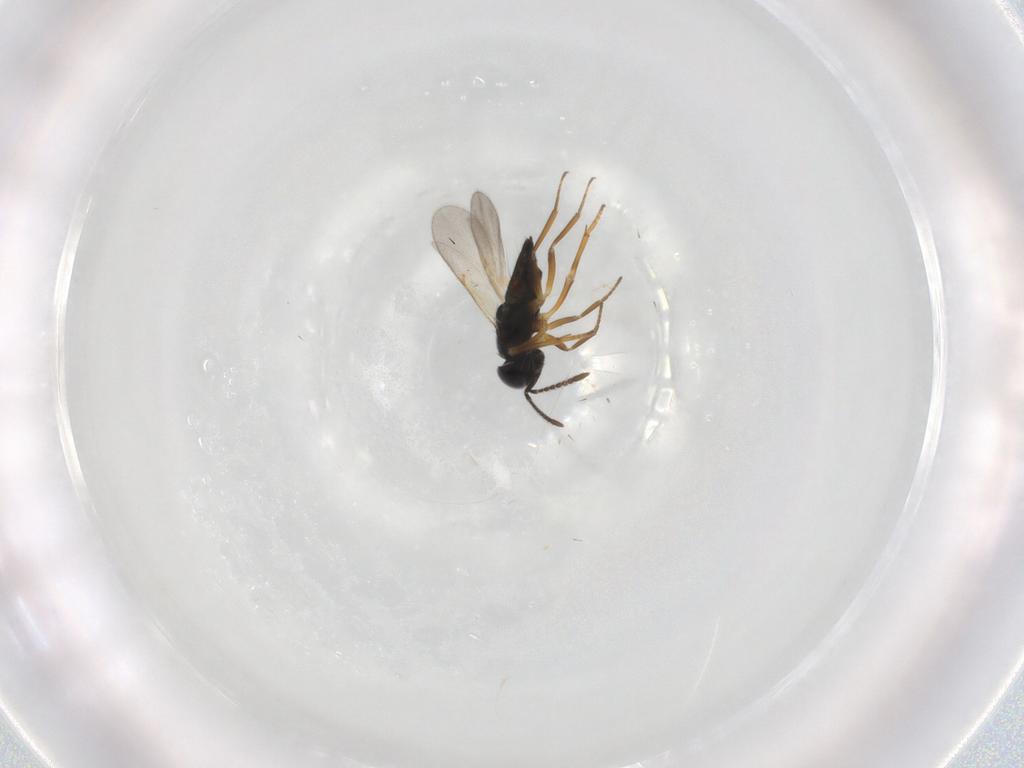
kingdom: Animalia
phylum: Arthropoda
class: Insecta
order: Hymenoptera
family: Encyrtidae
